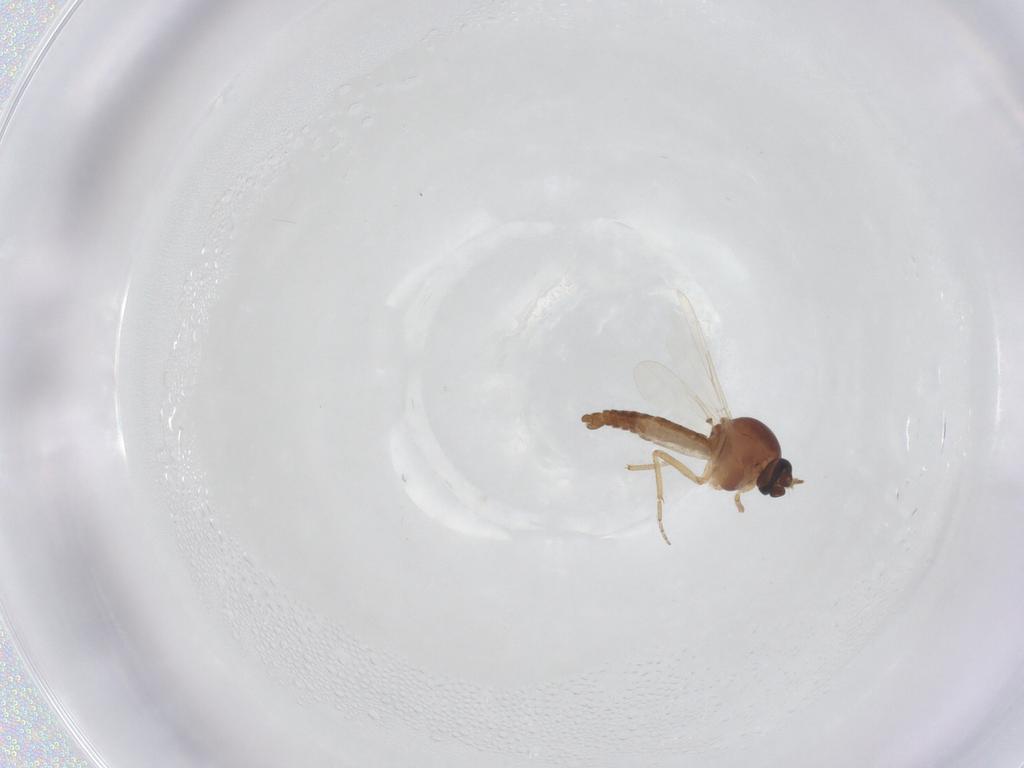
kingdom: Animalia
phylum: Arthropoda
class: Insecta
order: Diptera
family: Ceratopogonidae
